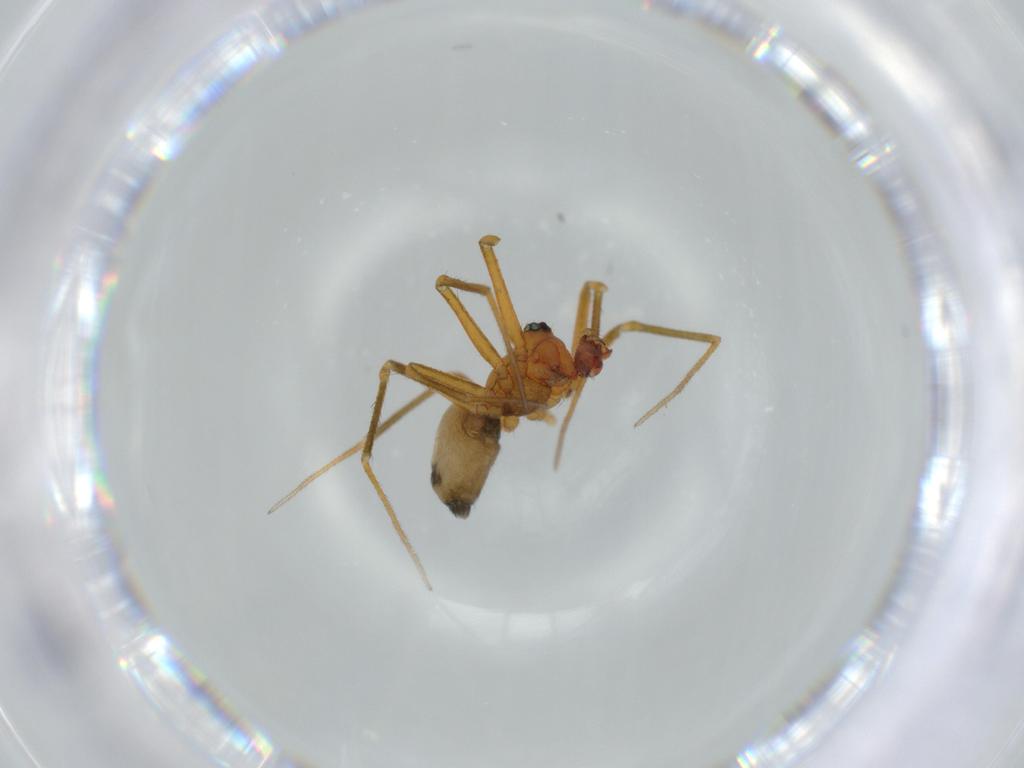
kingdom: Animalia
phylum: Arthropoda
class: Arachnida
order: Araneae
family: Linyphiidae
